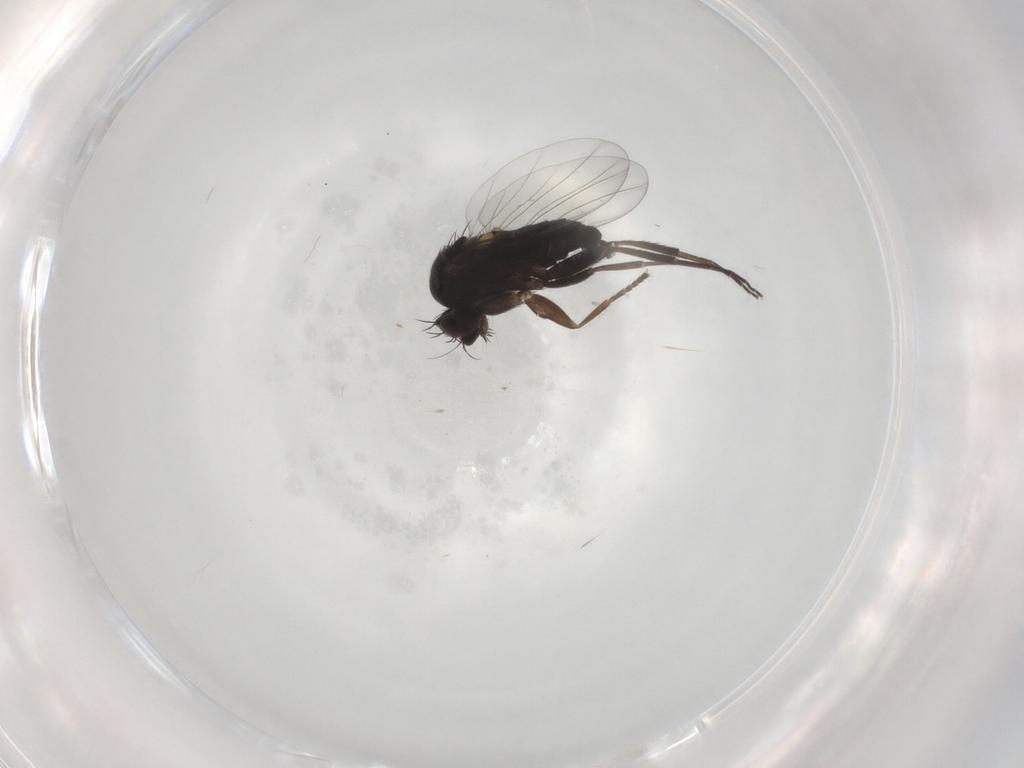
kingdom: Animalia
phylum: Arthropoda
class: Insecta
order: Diptera
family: Phoridae
